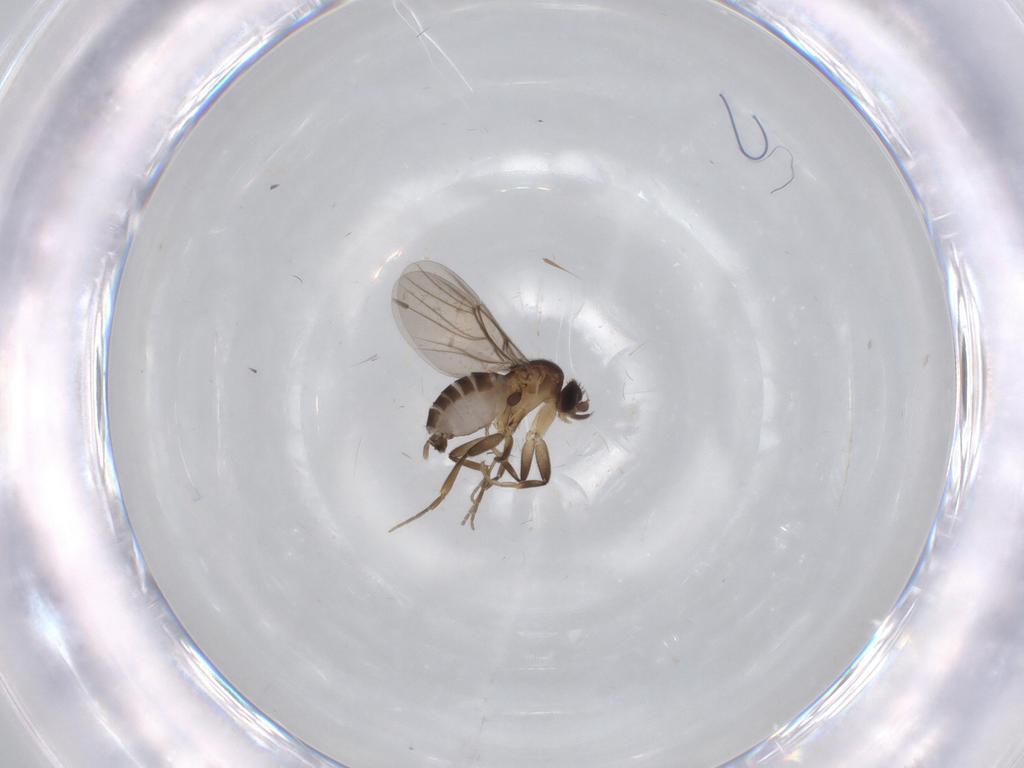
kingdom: Animalia
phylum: Arthropoda
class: Insecta
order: Diptera
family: Phoridae
